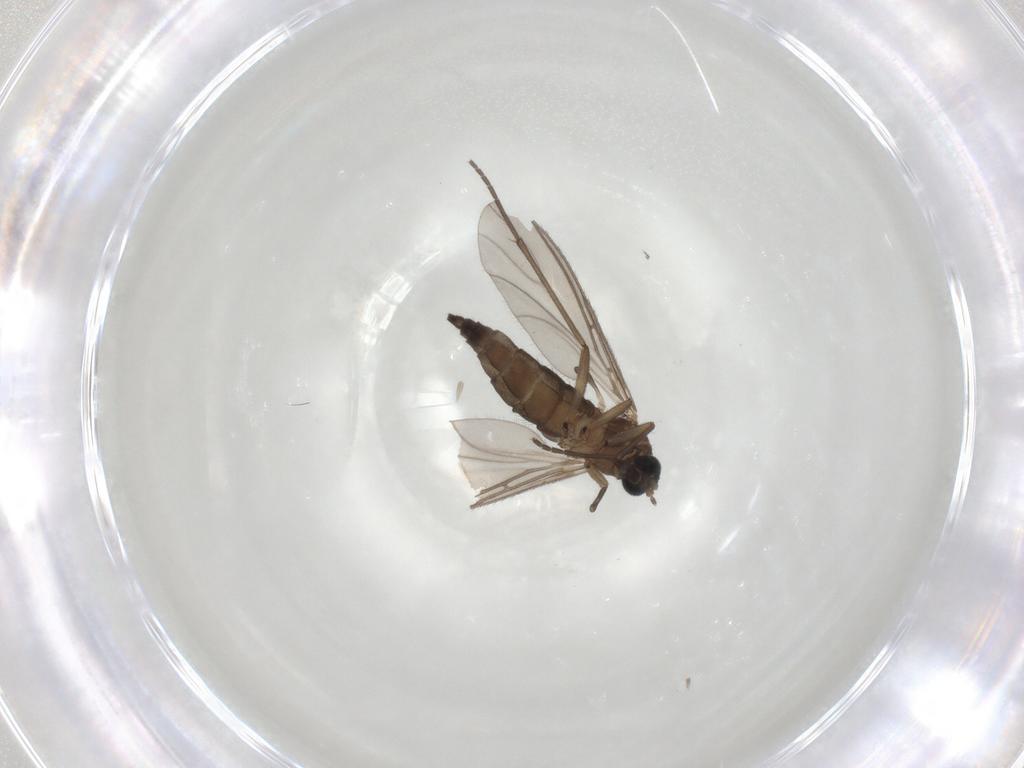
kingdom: Animalia
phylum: Arthropoda
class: Insecta
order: Diptera
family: Sciaridae
